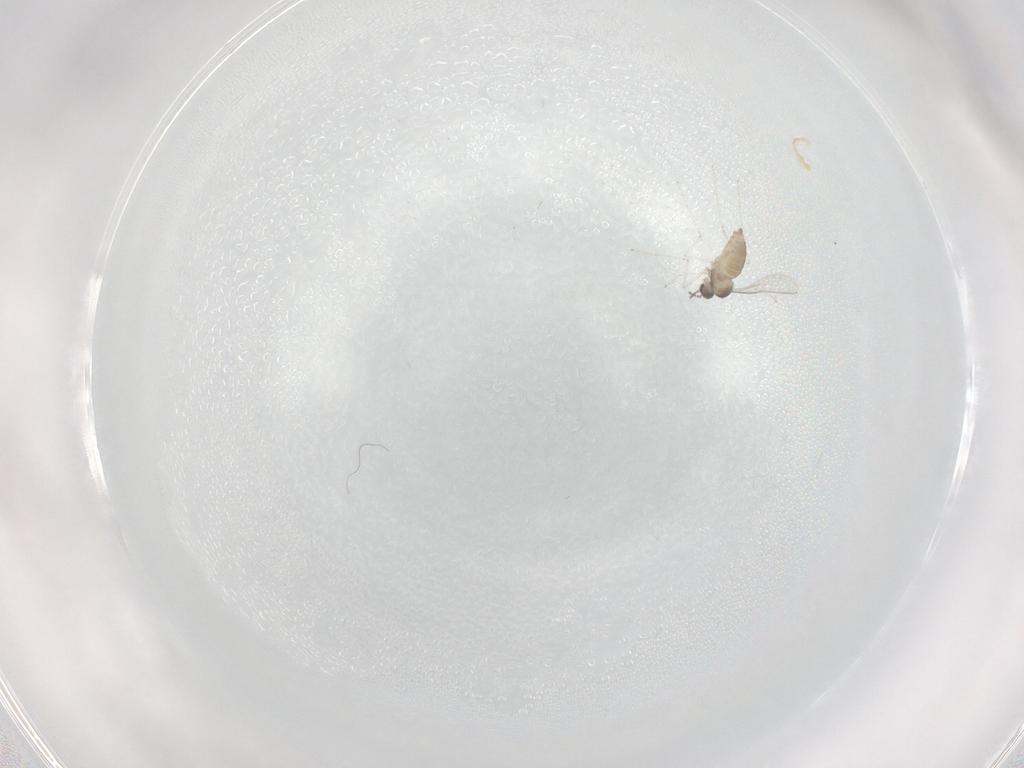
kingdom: Animalia
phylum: Arthropoda
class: Insecta
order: Diptera
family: Cecidomyiidae
